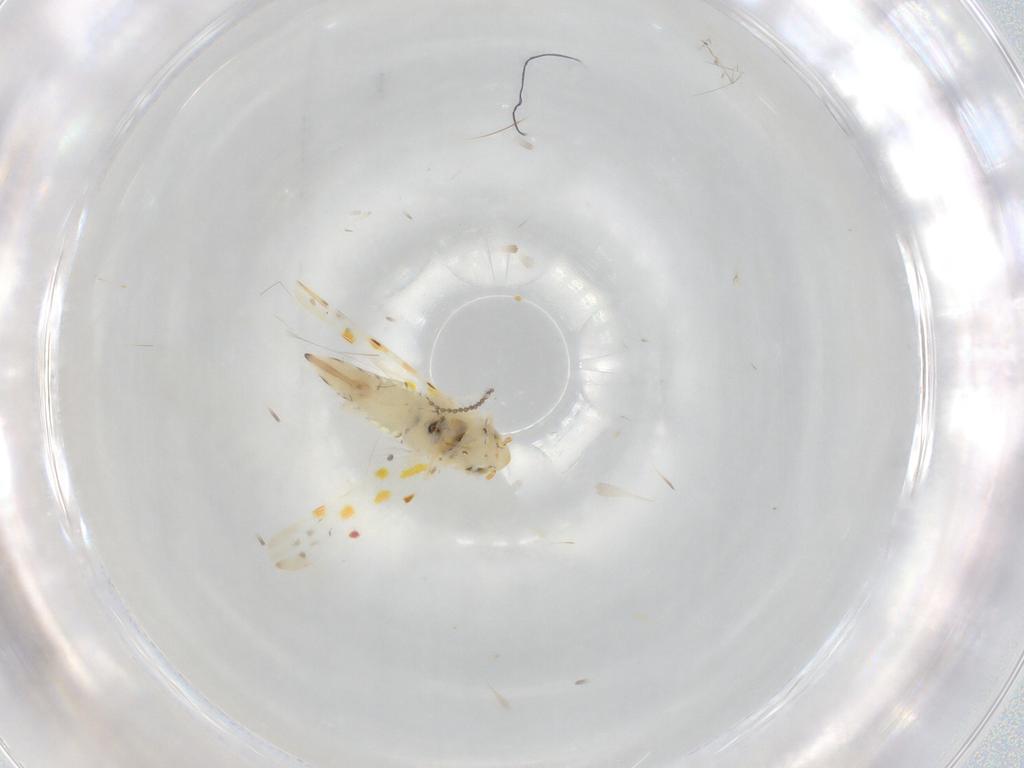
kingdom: Animalia
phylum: Arthropoda
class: Insecta
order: Hemiptera
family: Cicadellidae
